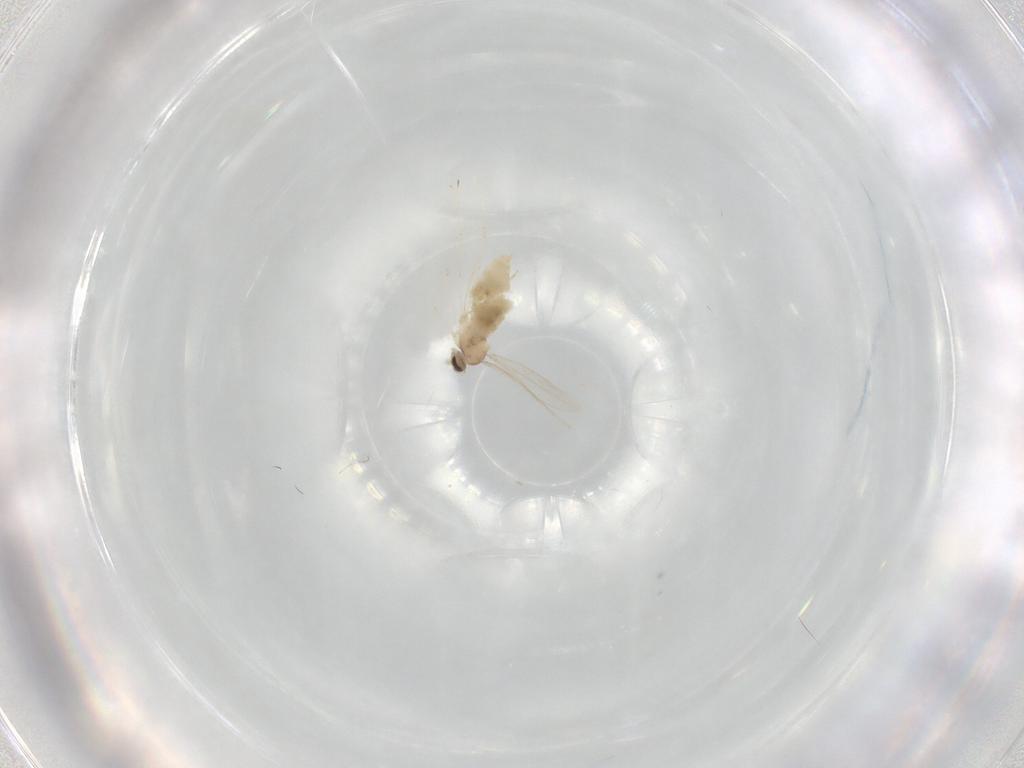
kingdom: Animalia
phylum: Arthropoda
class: Insecta
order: Diptera
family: Cecidomyiidae
